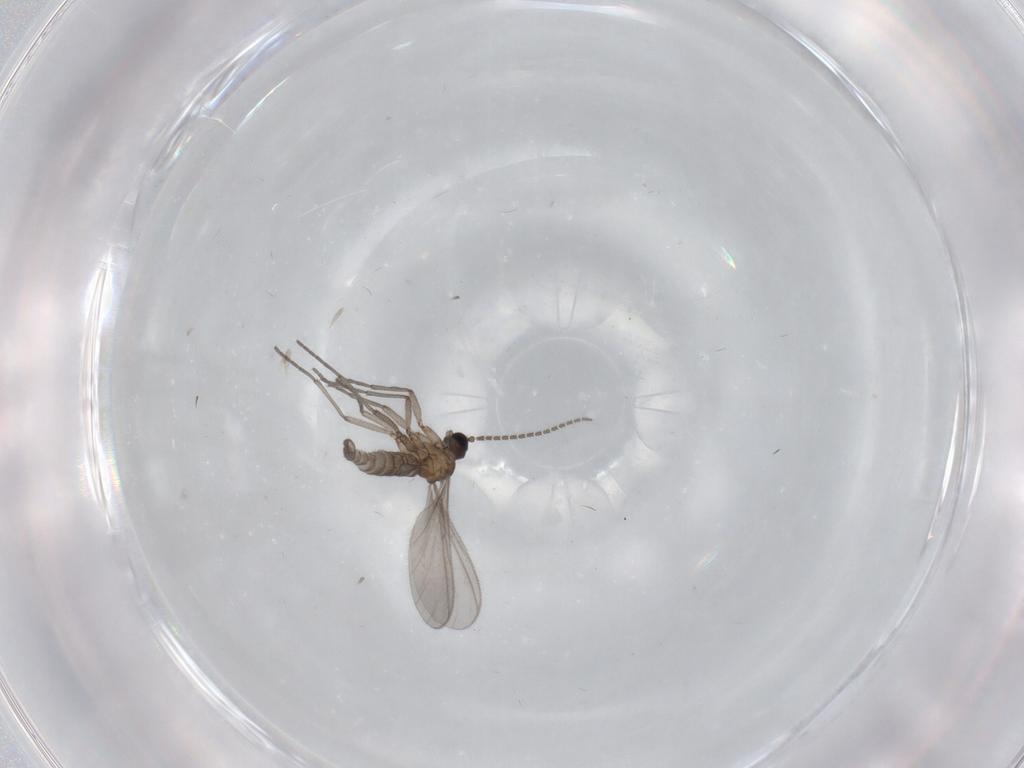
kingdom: Animalia
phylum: Arthropoda
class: Insecta
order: Diptera
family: Sciaridae
